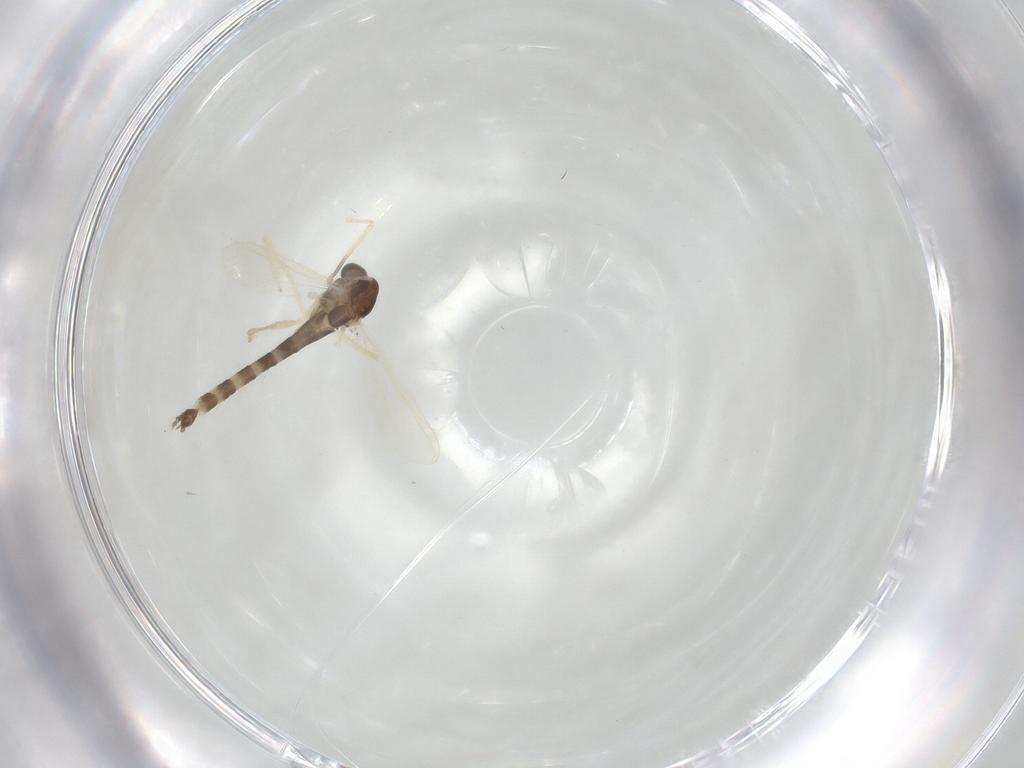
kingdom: Animalia
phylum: Arthropoda
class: Insecta
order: Diptera
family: Chironomidae
